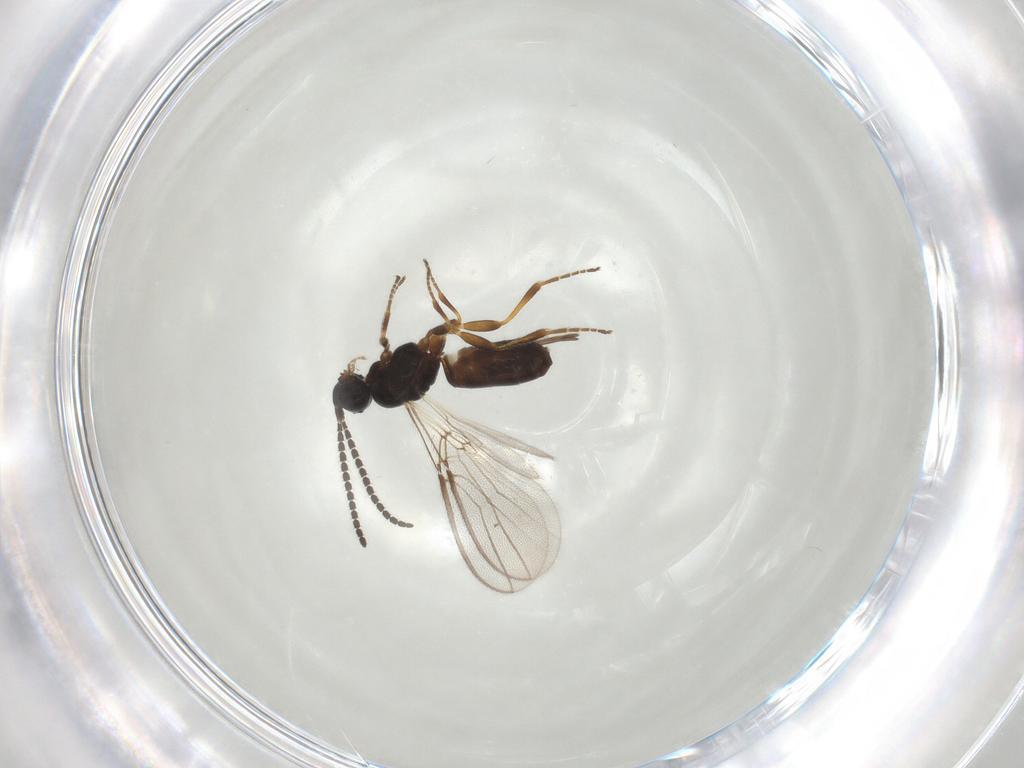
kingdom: Animalia
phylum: Arthropoda
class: Insecta
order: Hymenoptera
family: Braconidae
